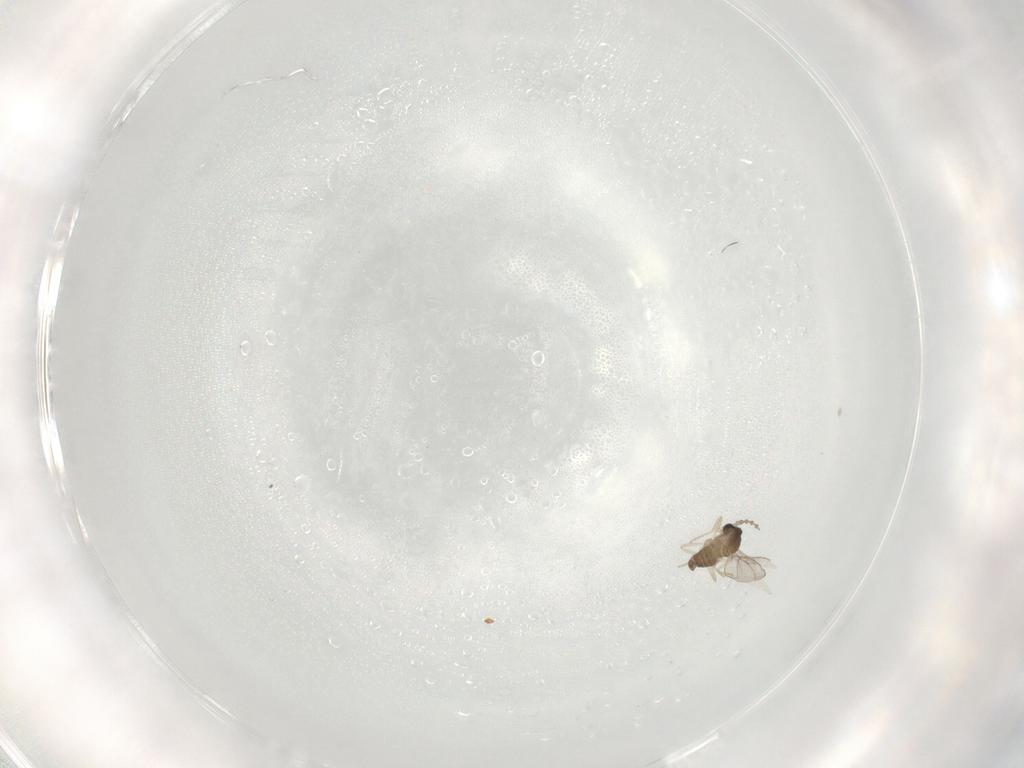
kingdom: Animalia
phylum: Arthropoda
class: Insecta
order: Diptera
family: Cecidomyiidae
